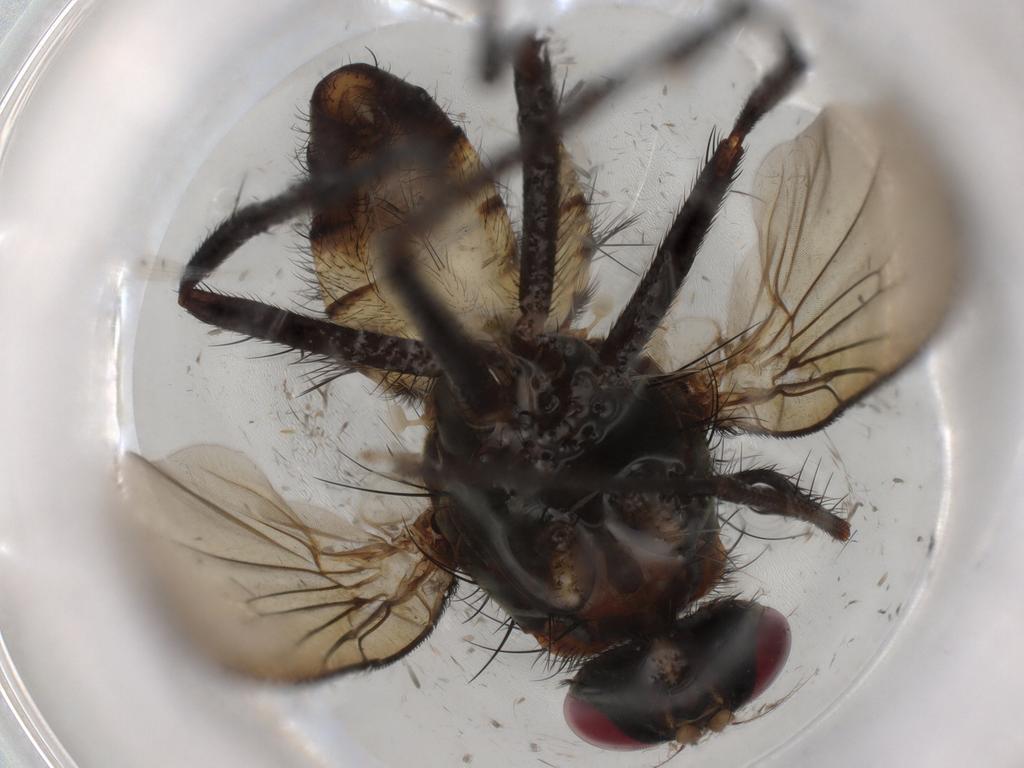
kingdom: Animalia
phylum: Arthropoda
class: Insecta
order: Diptera
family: Anthomyiidae
